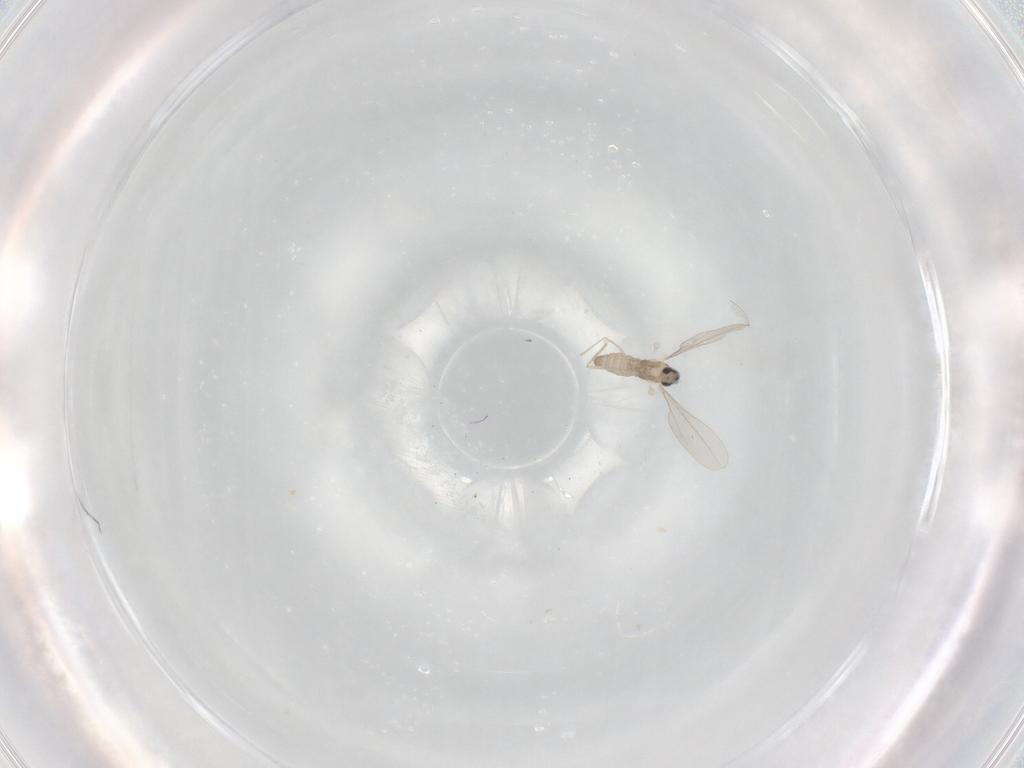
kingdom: Animalia
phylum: Arthropoda
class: Insecta
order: Diptera
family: Cecidomyiidae
